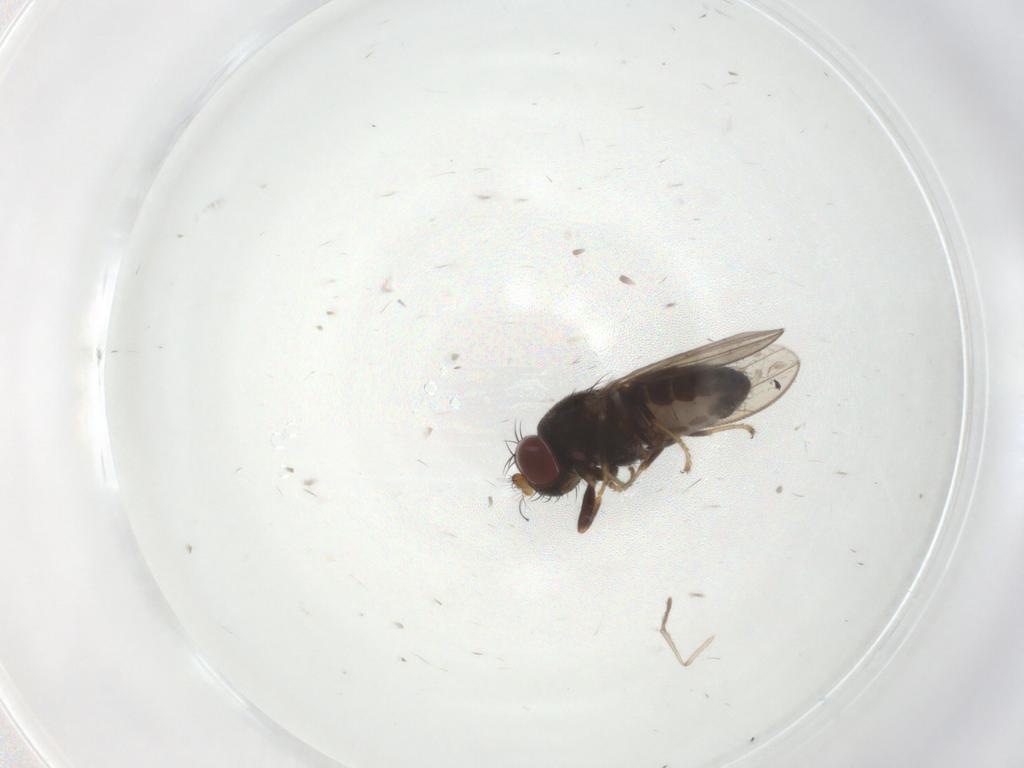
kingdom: Animalia
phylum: Arthropoda
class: Insecta
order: Diptera
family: Ephydridae
